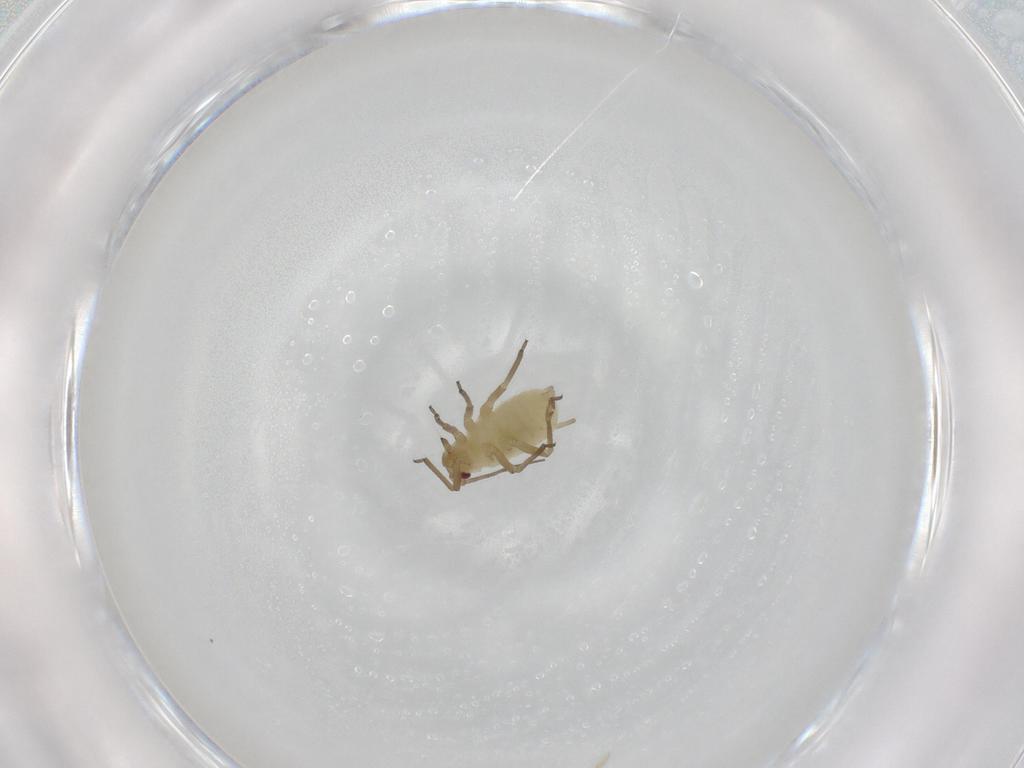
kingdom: Animalia
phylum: Arthropoda
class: Insecta
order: Hemiptera
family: Aphididae
